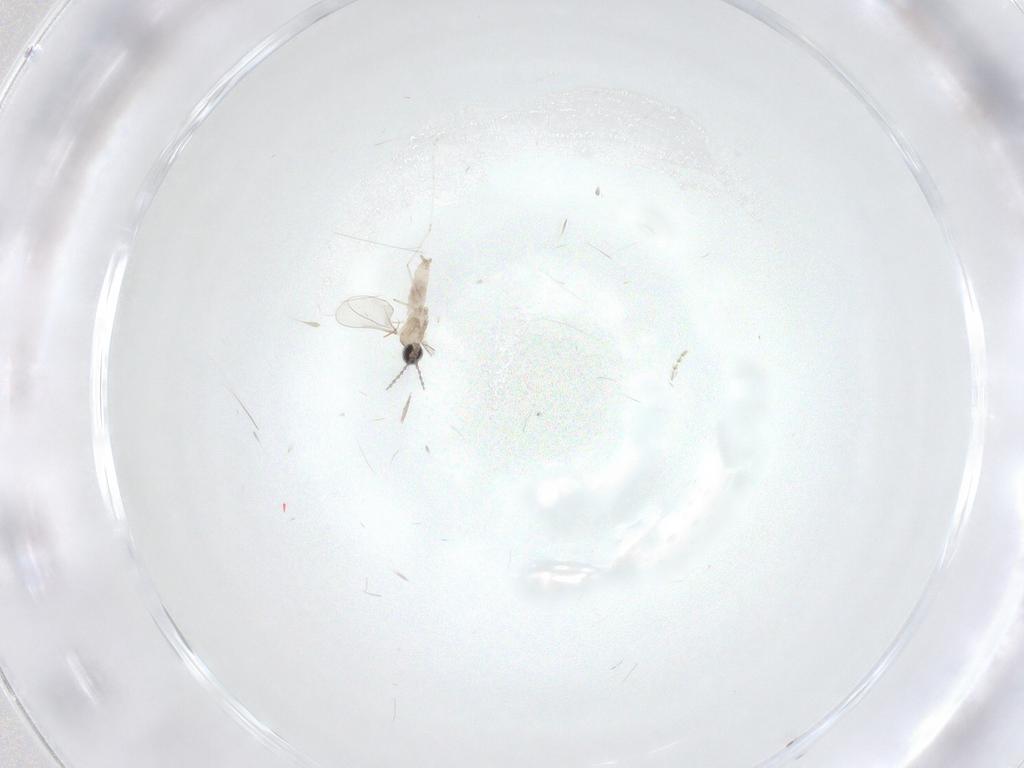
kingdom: Animalia
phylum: Arthropoda
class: Insecta
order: Diptera
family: Cecidomyiidae
